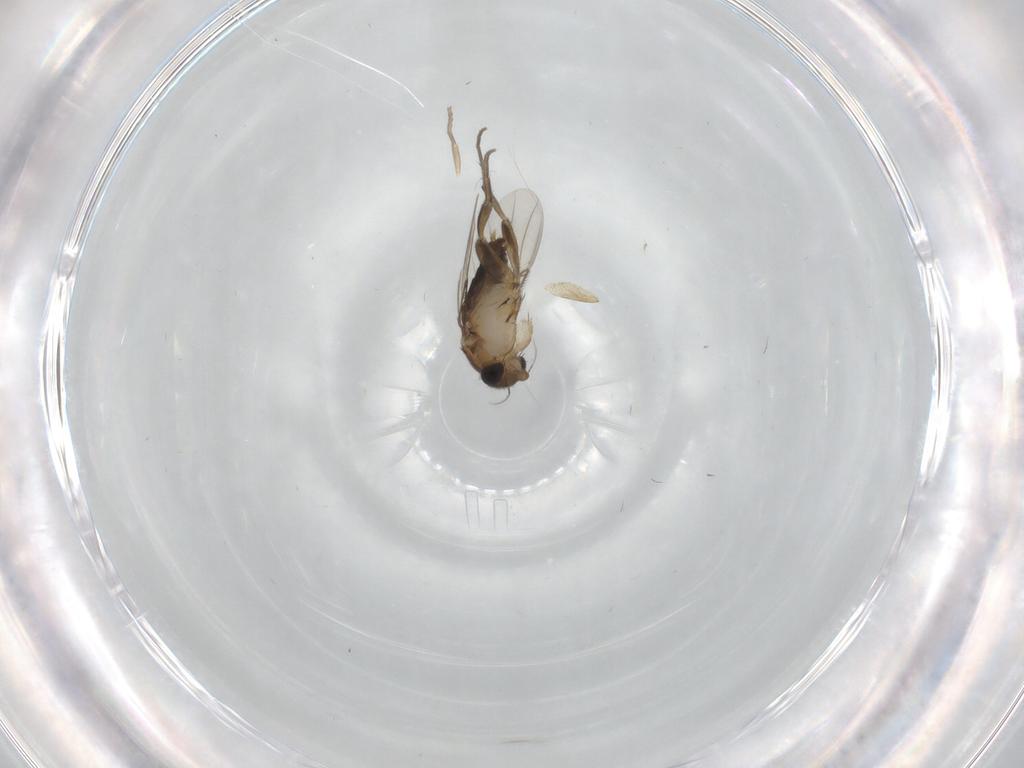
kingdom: Animalia
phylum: Arthropoda
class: Insecta
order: Diptera
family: Phoridae
